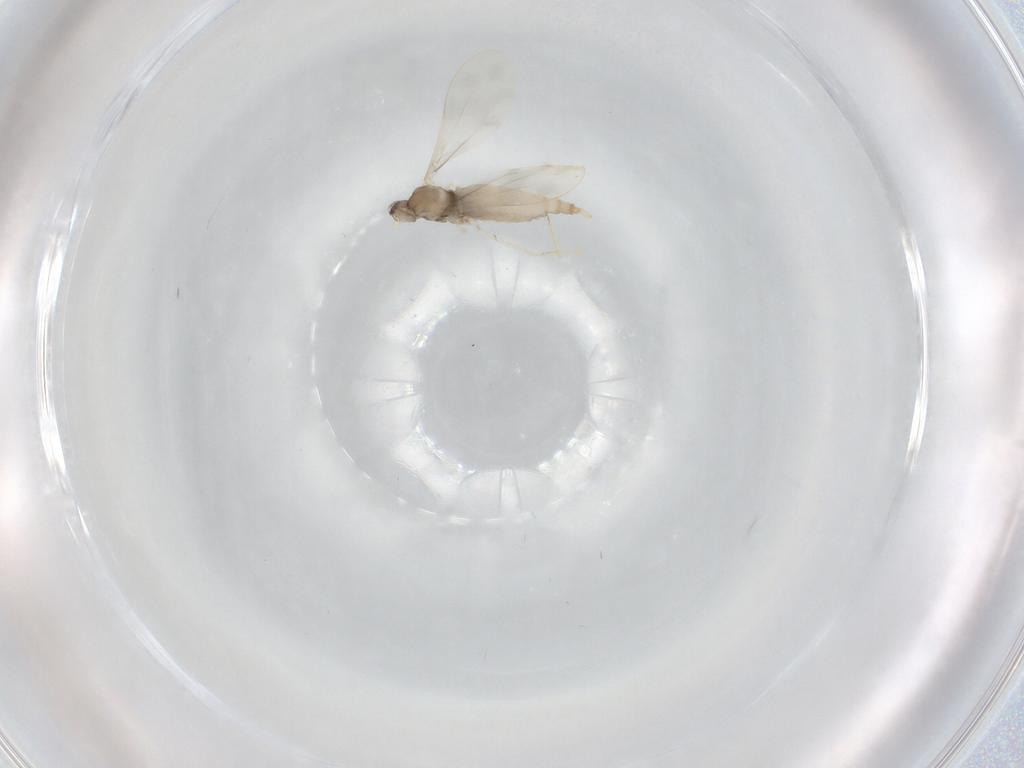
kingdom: Animalia
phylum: Arthropoda
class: Insecta
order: Diptera
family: Cecidomyiidae
